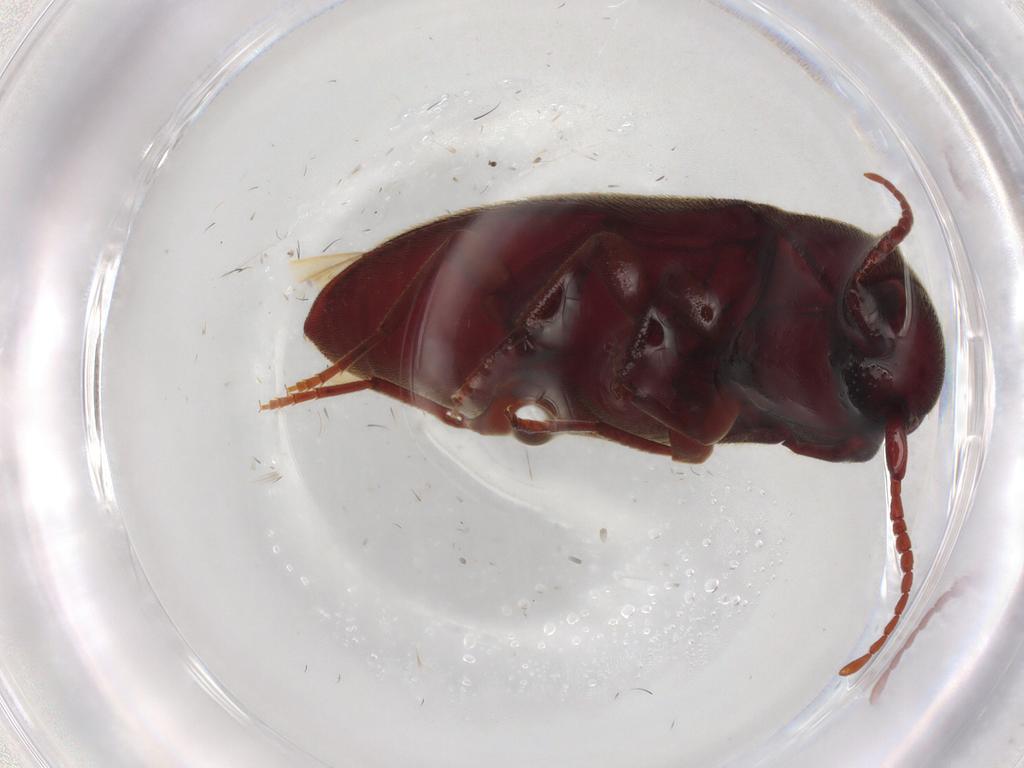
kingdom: Animalia
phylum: Arthropoda
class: Insecta
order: Coleoptera
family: Eucnemidae
